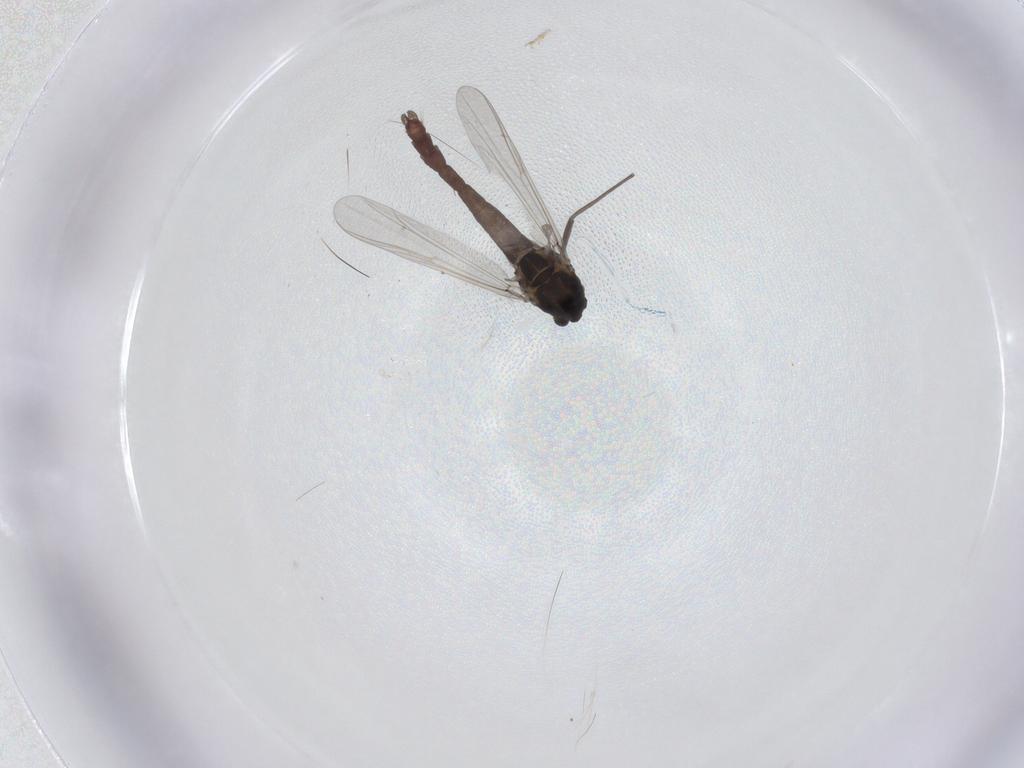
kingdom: Animalia
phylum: Arthropoda
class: Insecta
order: Diptera
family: Chironomidae
